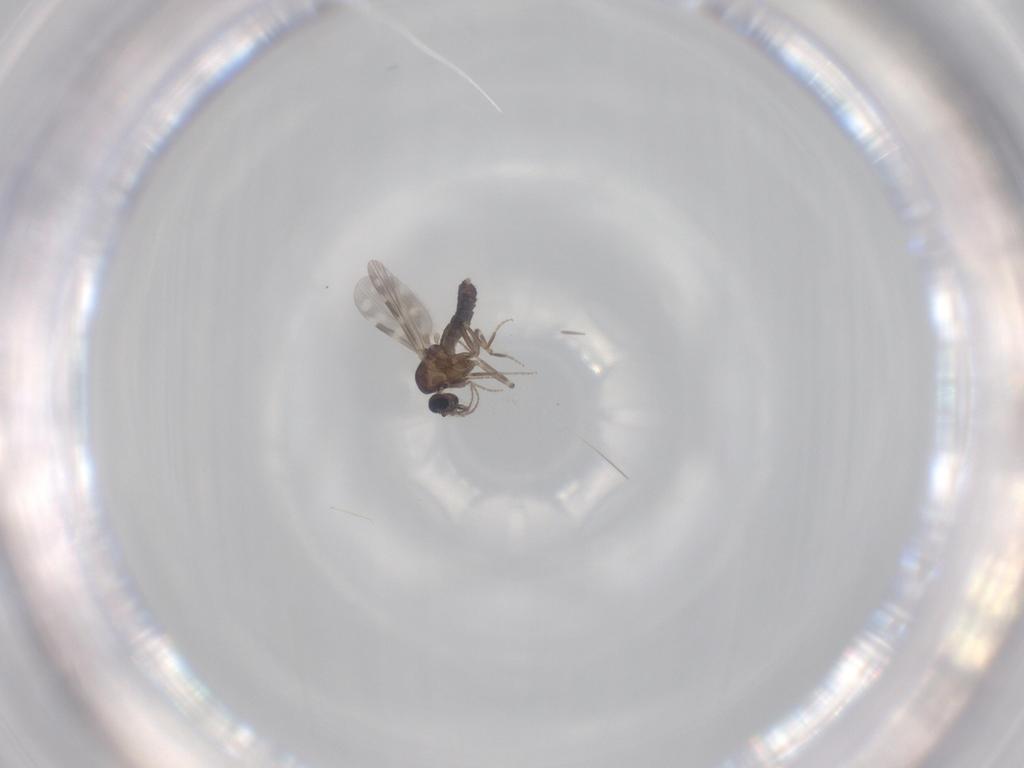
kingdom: Animalia
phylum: Arthropoda
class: Insecta
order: Diptera
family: Ceratopogonidae
